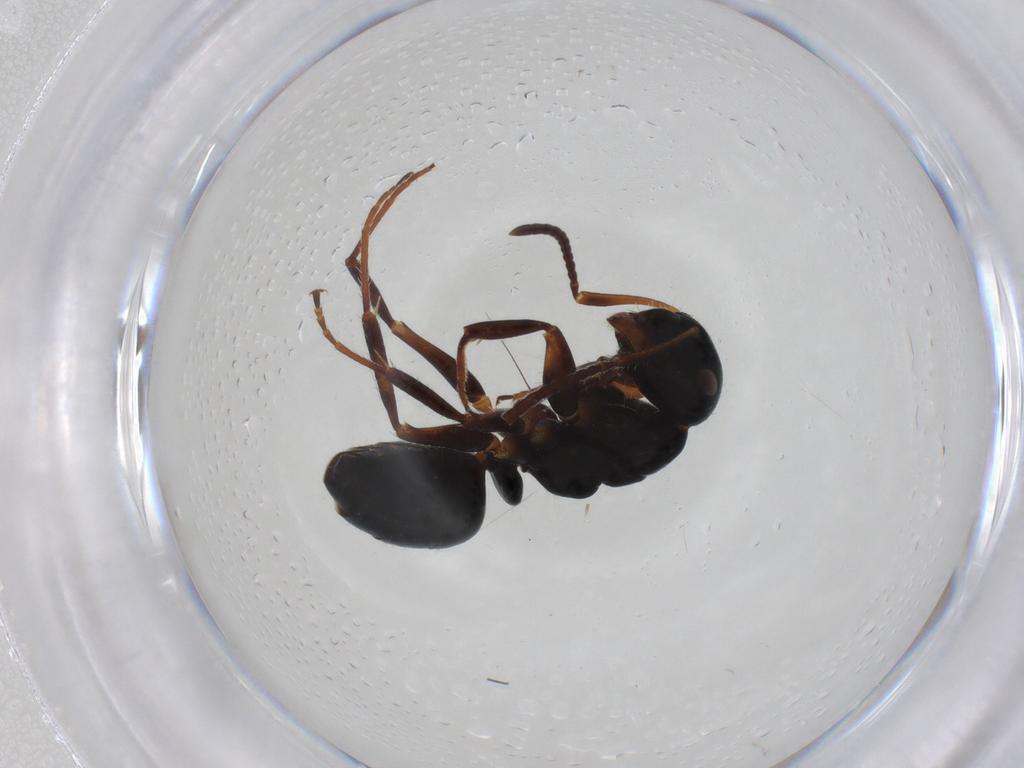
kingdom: Animalia
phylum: Arthropoda
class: Insecta
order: Hymenoptera
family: Formicidae
